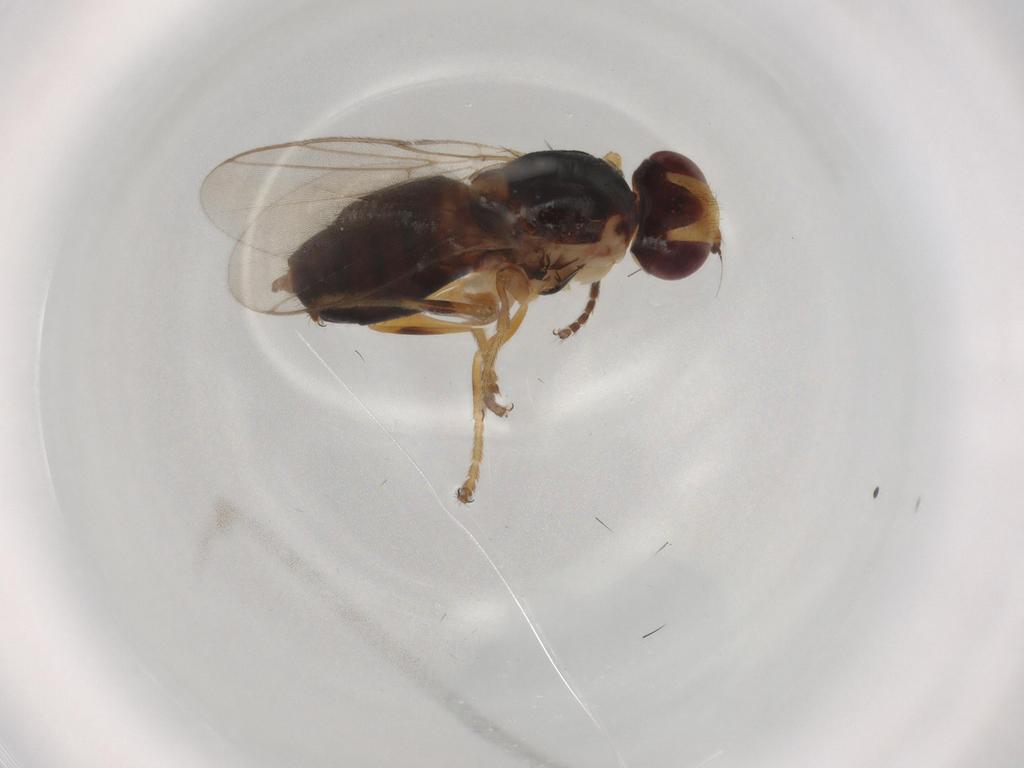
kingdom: Animalia
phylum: Arthropoda
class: Insecta
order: Diptera
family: Chloropidae
